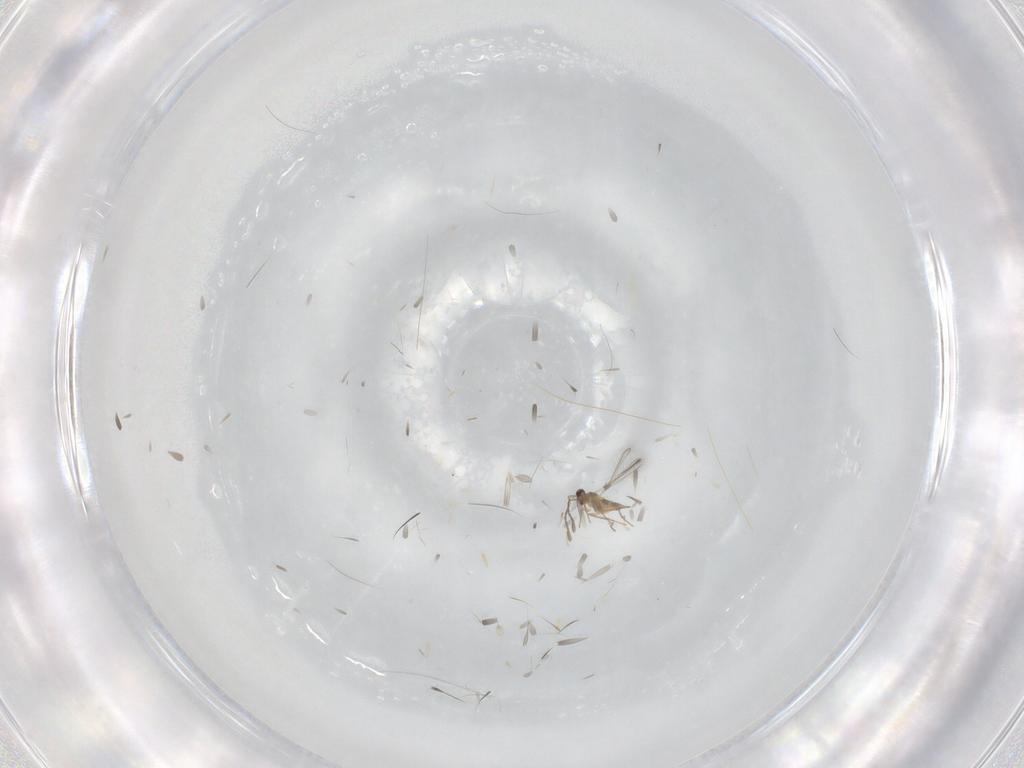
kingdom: Animalia
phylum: Arthropoda
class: Insecta
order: Hymenoptera
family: Mymaridae
